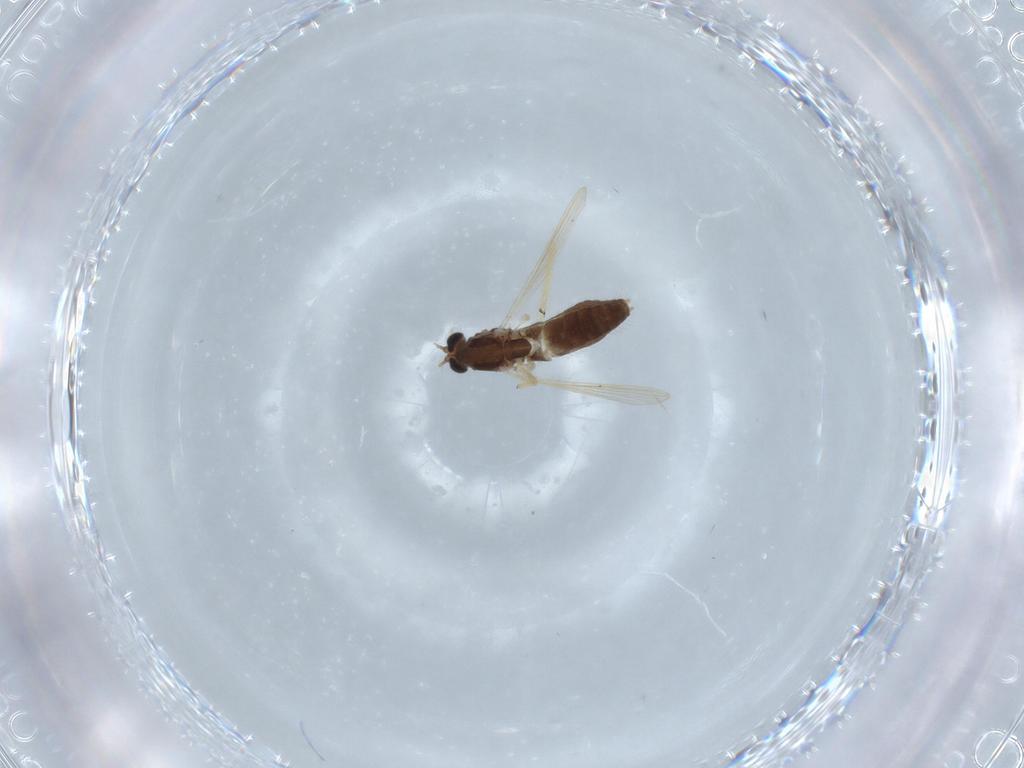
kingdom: Animalia
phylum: Arthropoda
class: Insecta
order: Diptera
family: Chironomidae
